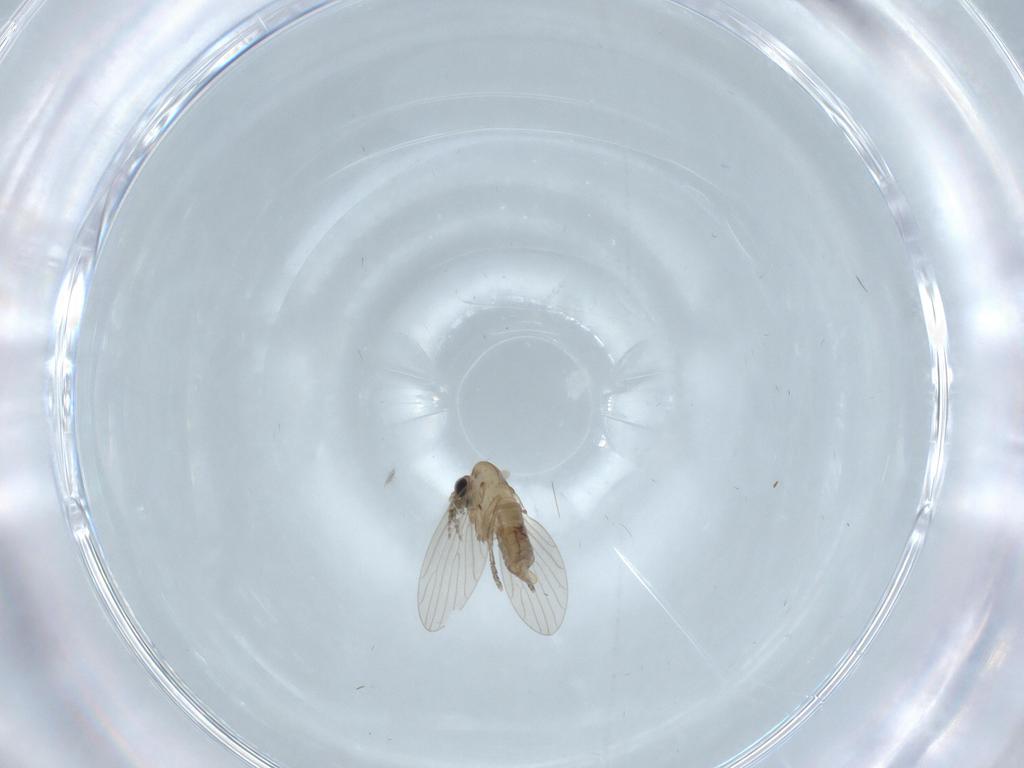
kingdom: Animalia
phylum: Arthropoda
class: Insecta
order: Diptera
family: Psychodidae
